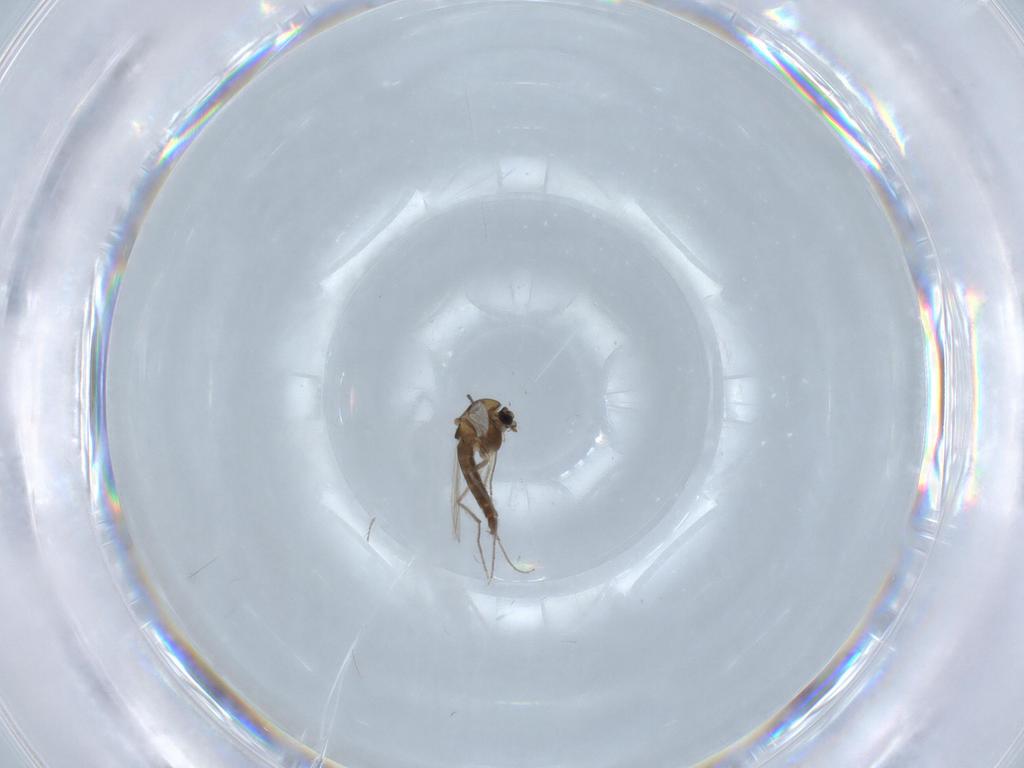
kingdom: Animalia
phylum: Arthropoda
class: Insecta
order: Diptera
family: Chironomidae
